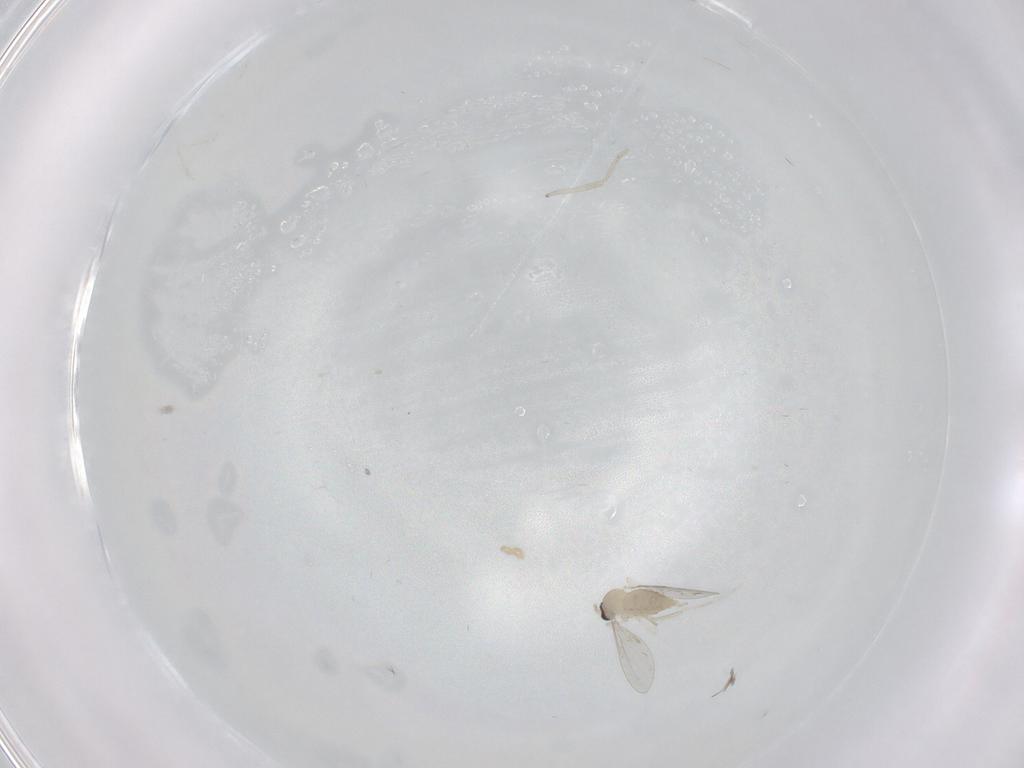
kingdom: Animalia
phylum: Arthropoda
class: Insecta
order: Diptera
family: Cecidomyiidae
